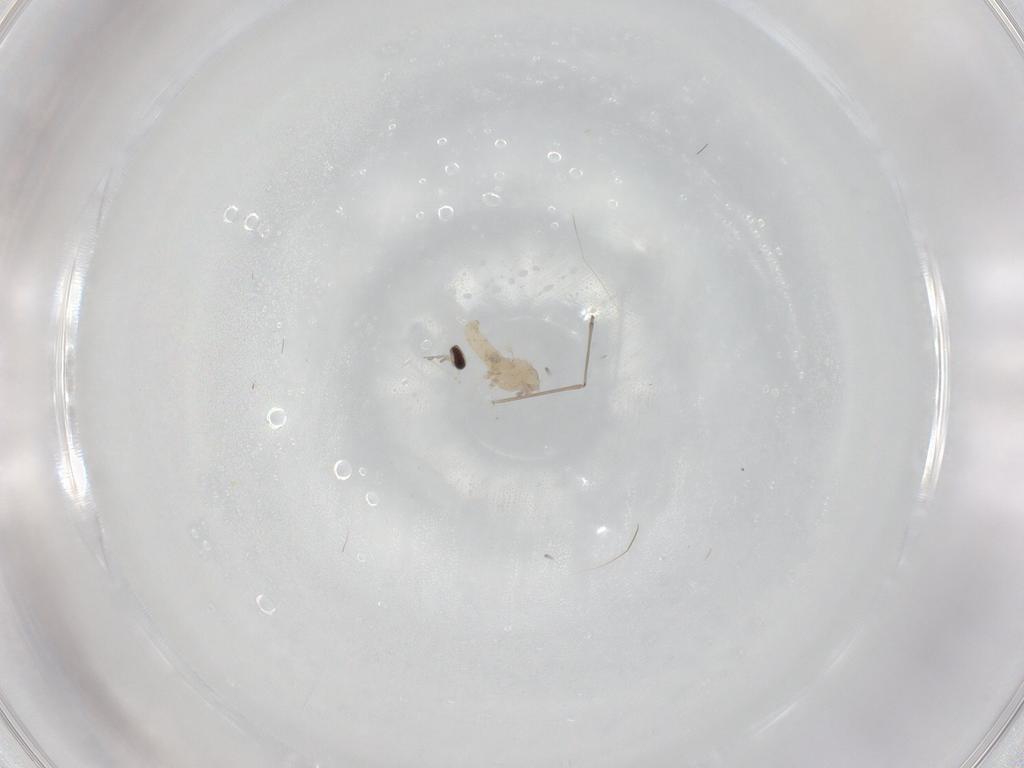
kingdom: Animalia
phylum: Arthropoda
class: Insecta
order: Diptera
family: Cecidomyiidae
